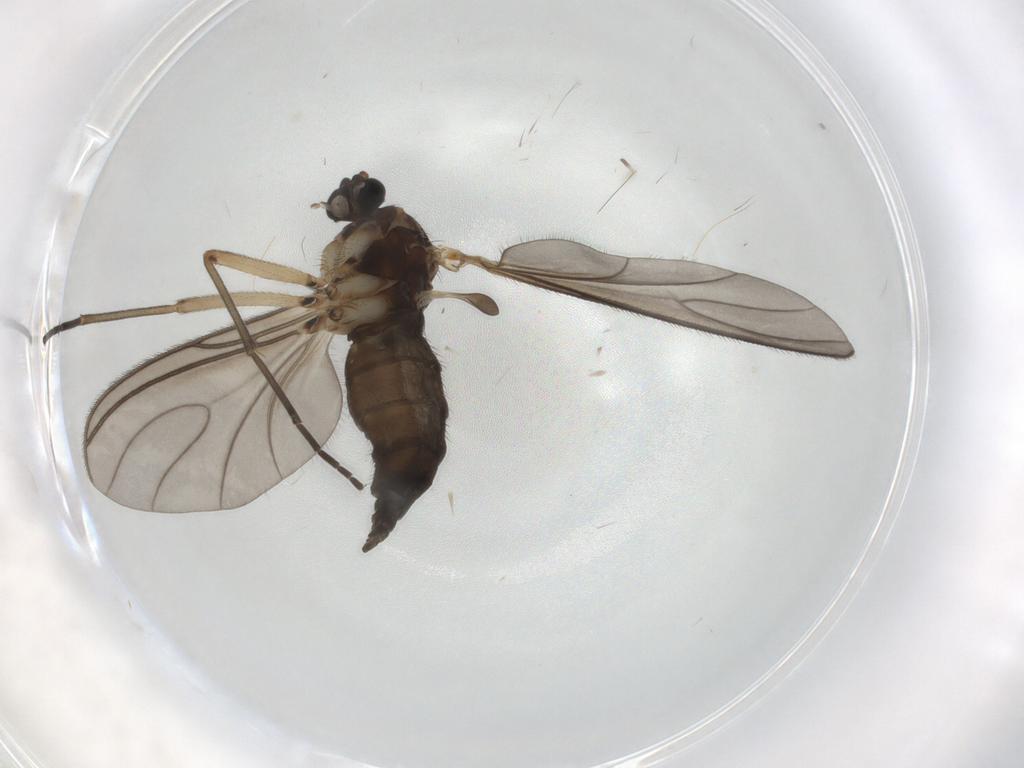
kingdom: Animalia
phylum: Arthropoda
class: Insecta
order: Diptera
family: Sciaridae
